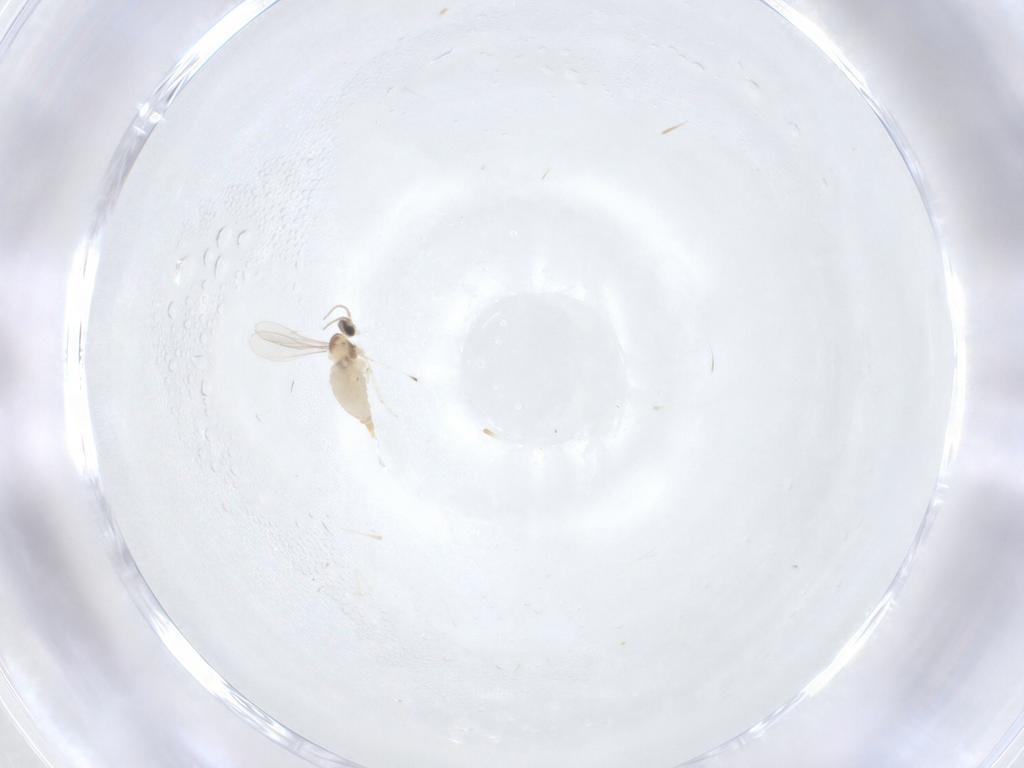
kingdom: Animalia
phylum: Arthropoda
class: Insecta
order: Diptera
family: Cecidomyiidae
